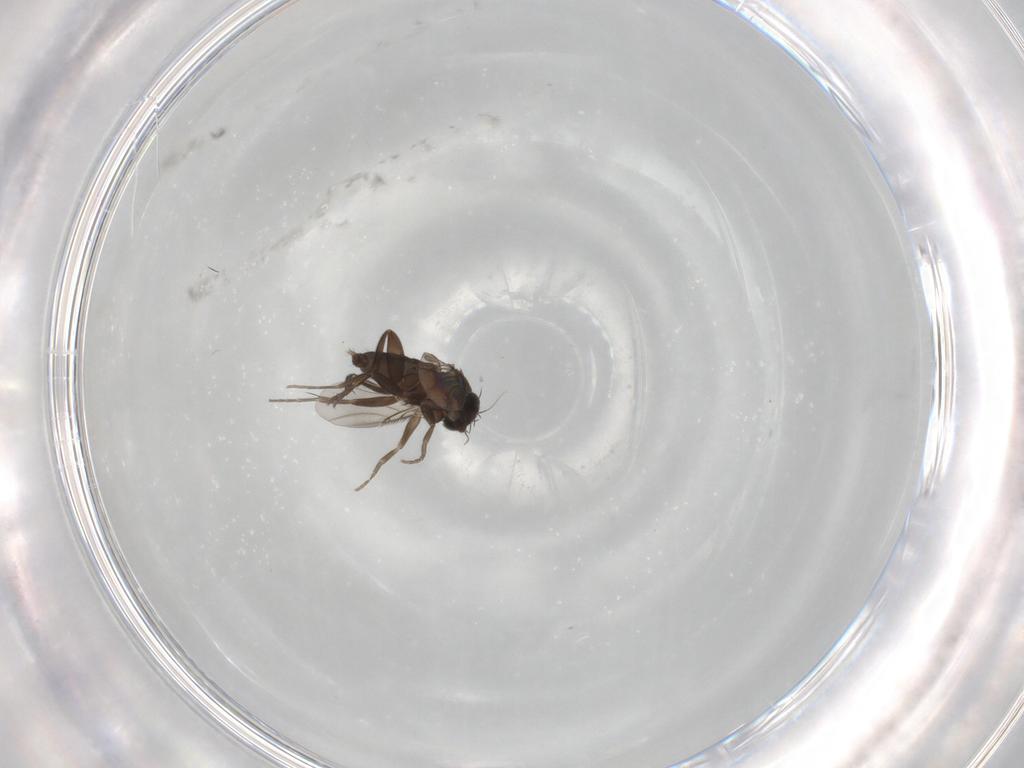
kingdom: Animalia
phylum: Arthropoda
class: Insecta
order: Diptera
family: Phoridae
